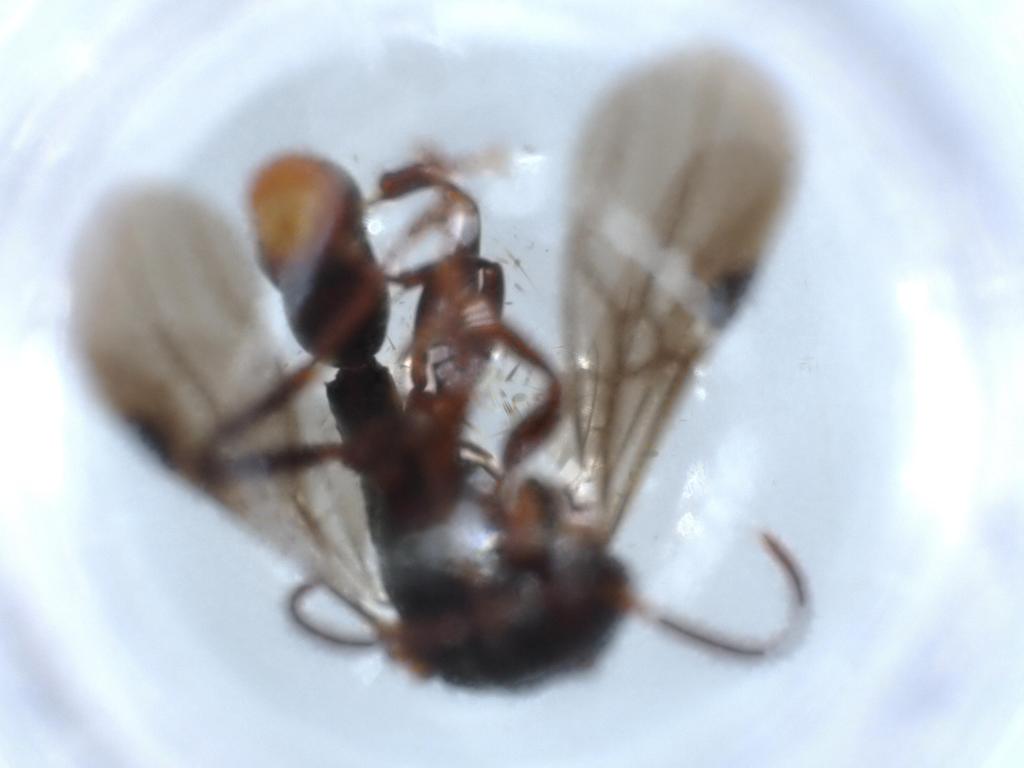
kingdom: Animalia
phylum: Arthropoda
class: Insecta
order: Hymenoptera
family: Formicidae
